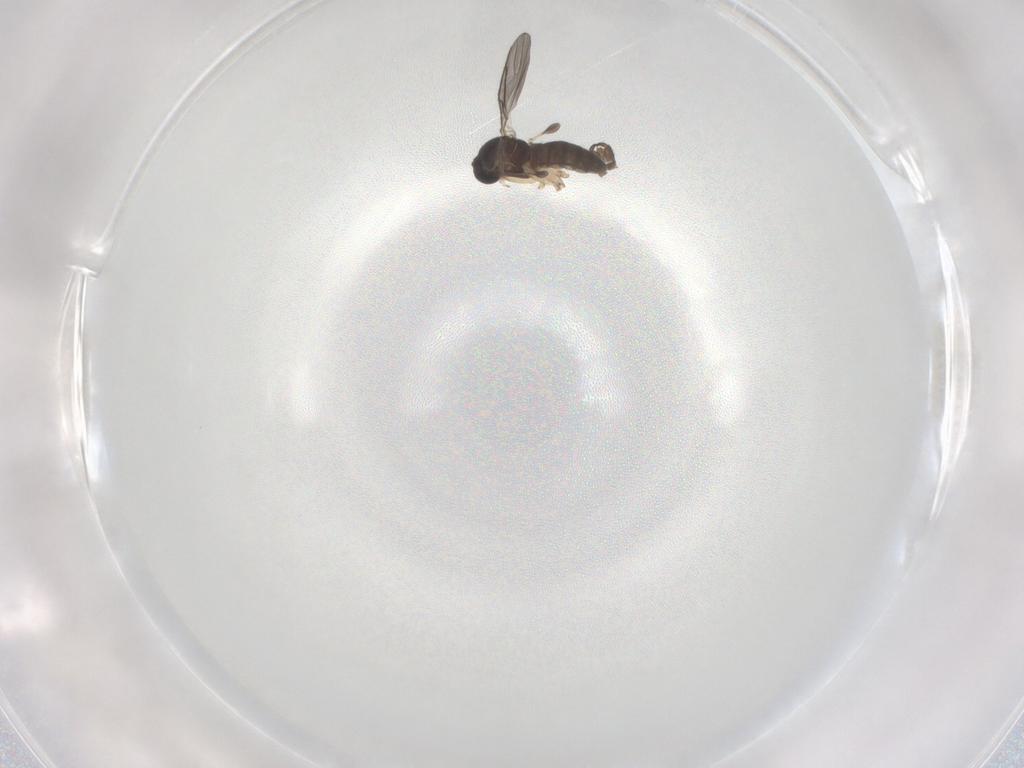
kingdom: Animalia
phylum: Arthropoda
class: Insecta
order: Diptera
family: Sciaridae
